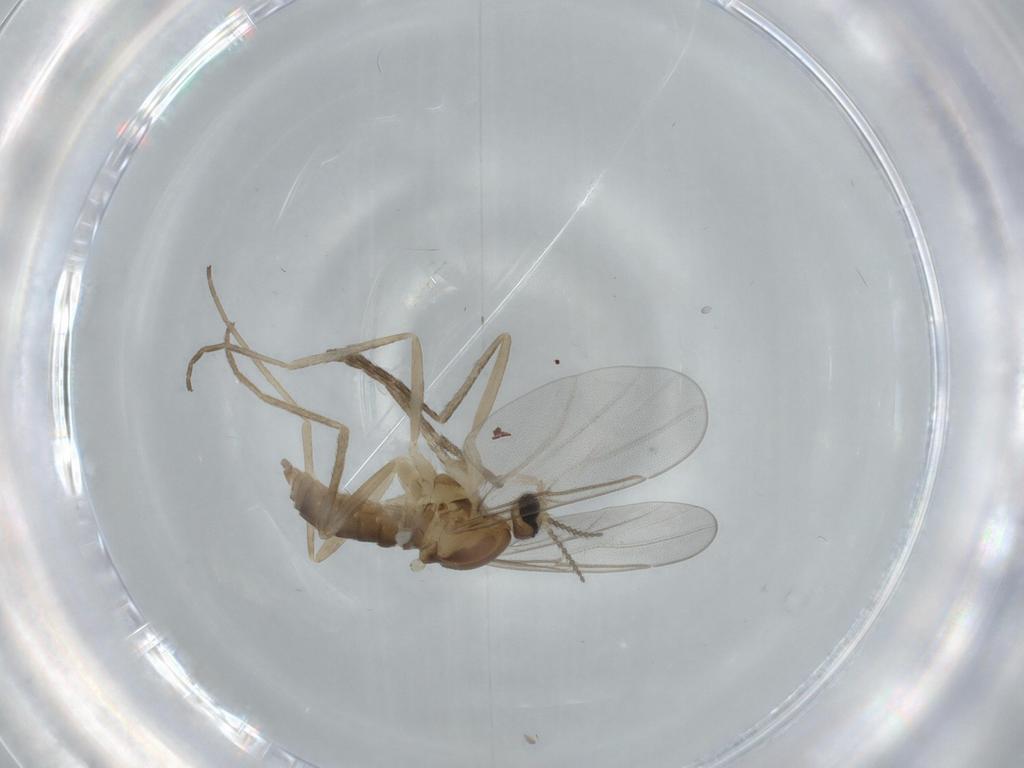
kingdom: Animalia
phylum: Arthropoda
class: Insecta
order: Diptera
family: Cecidomyiidae
